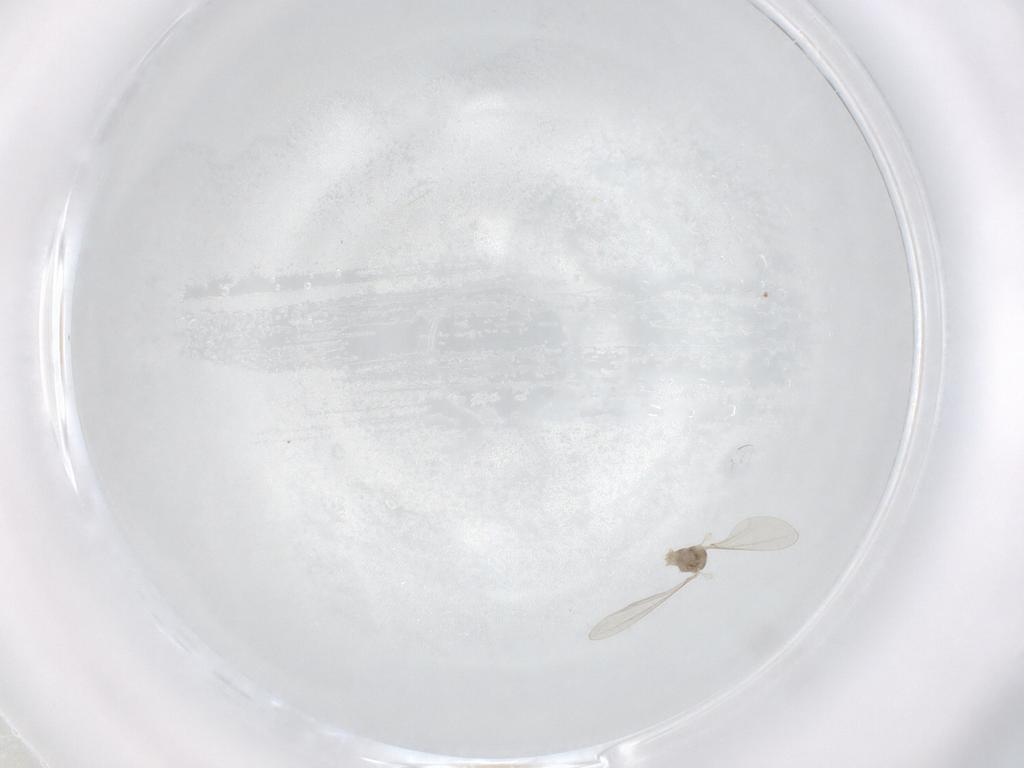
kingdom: Animalia
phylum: Arthropoda
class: Insecta
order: Diptera
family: Cecidomyiidae
